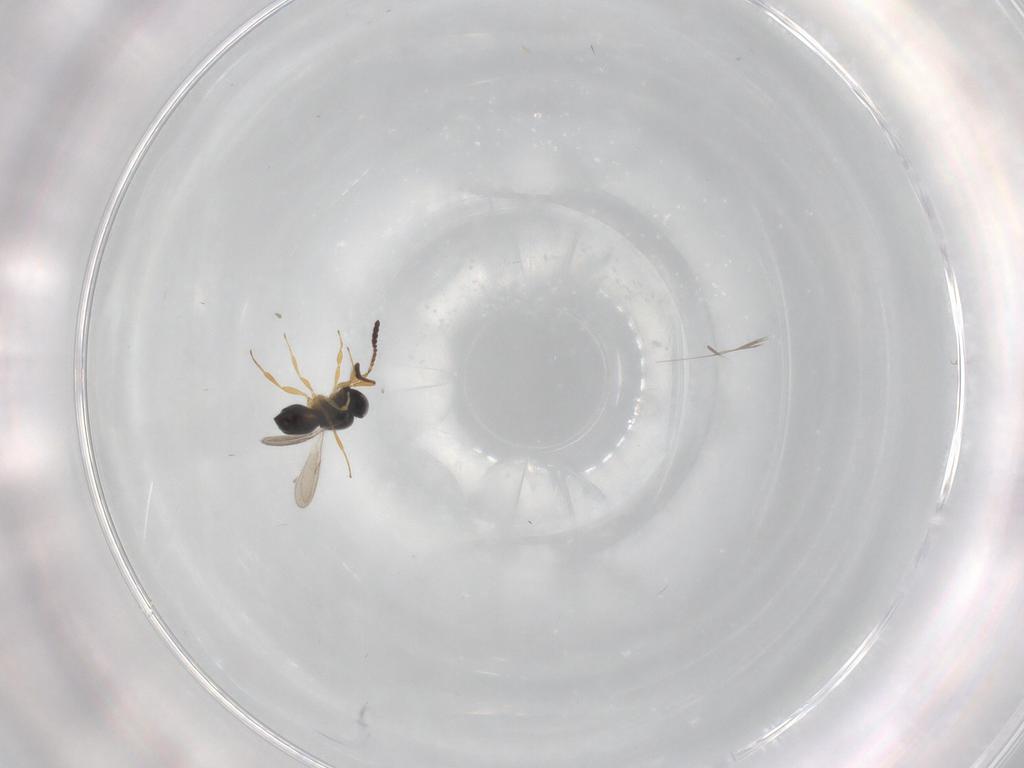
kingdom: Animalia
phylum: Arthropoda
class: Insecta
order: Hymenoptera
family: Scelionidae
